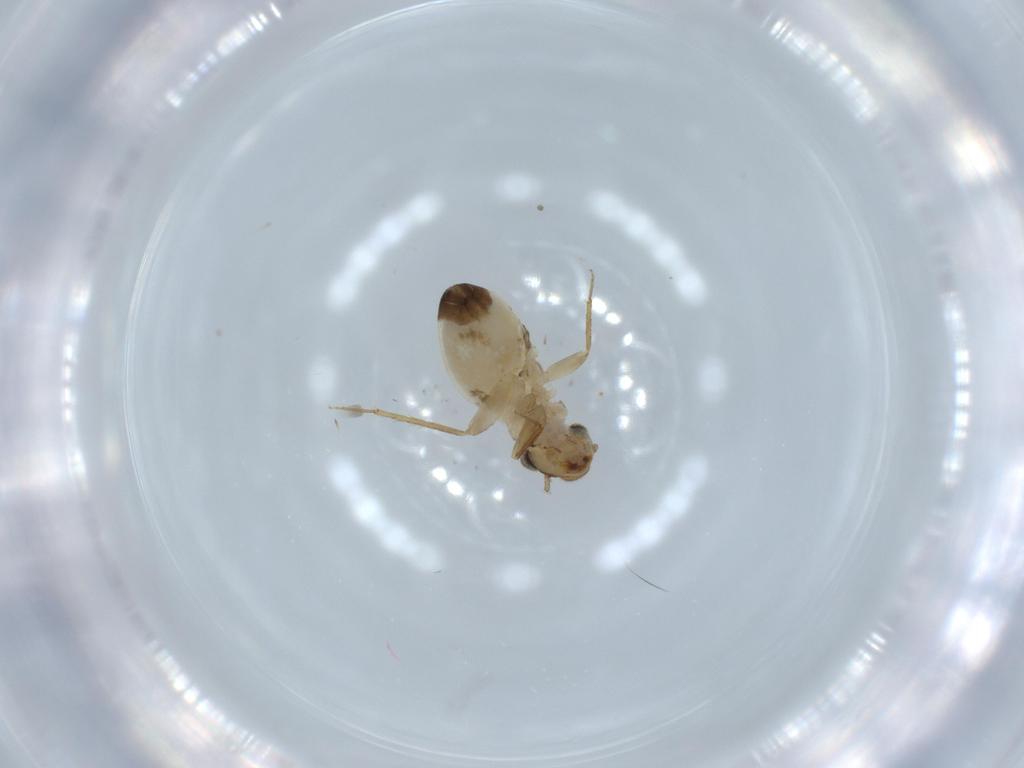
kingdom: Animalia
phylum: Arthropoda
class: Insecta
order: Psocodea
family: Lepidopsocidae
